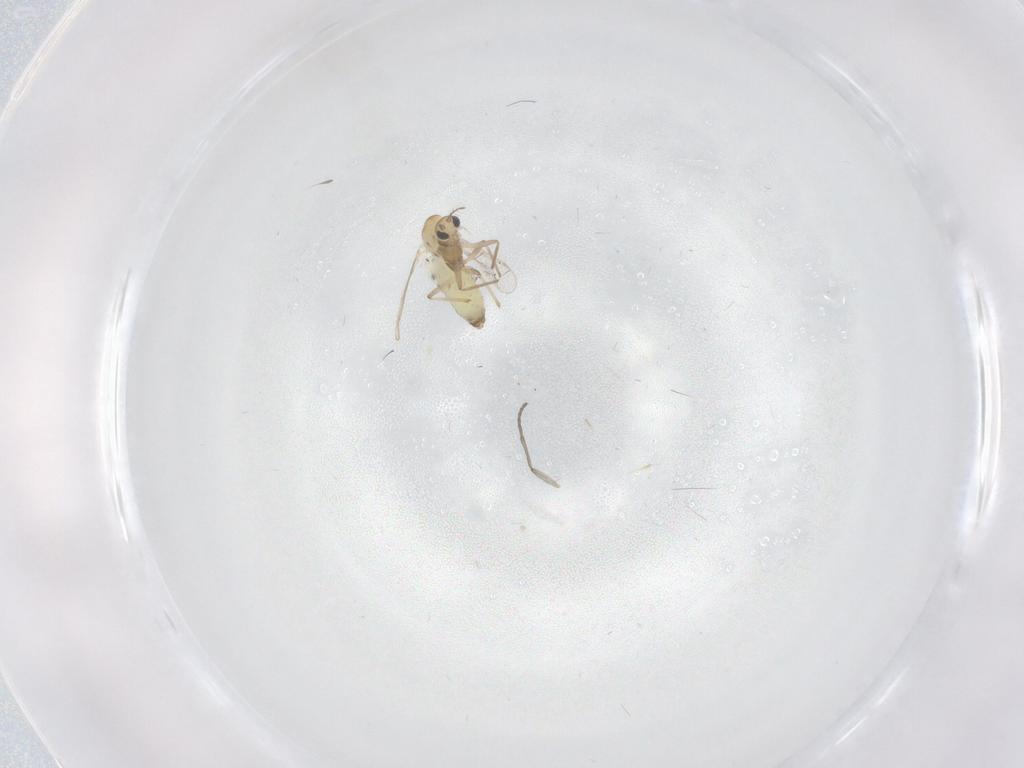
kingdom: Animalia
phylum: Arthropoda
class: Insecta
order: Diptera
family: Chironomidae
